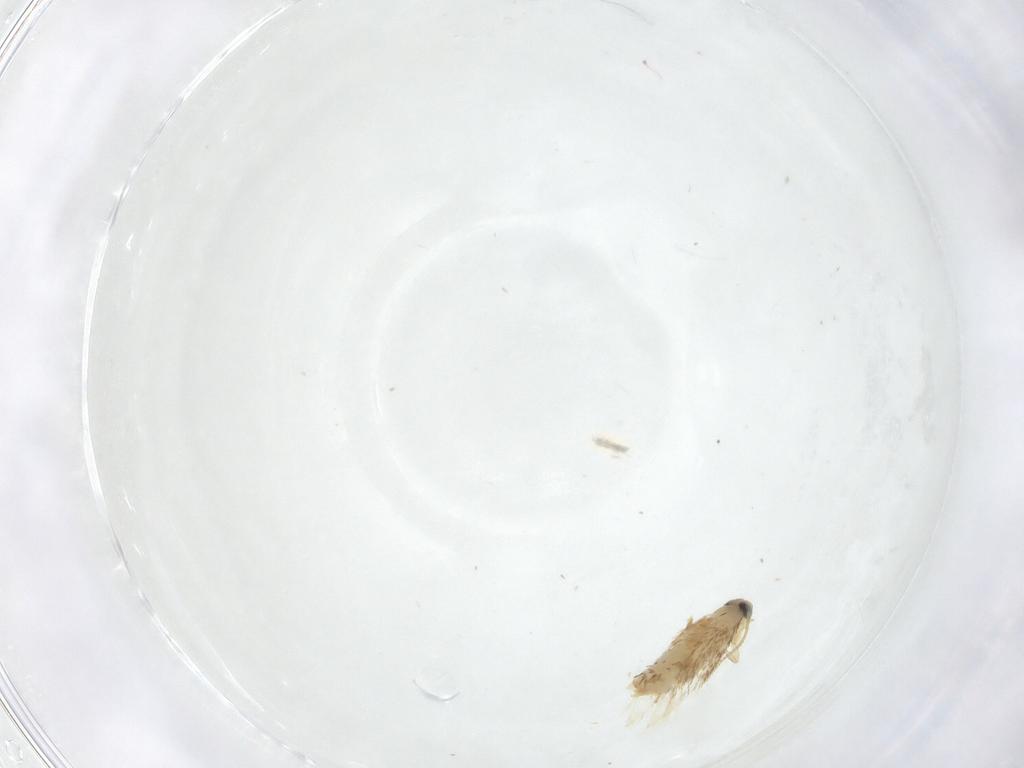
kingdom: Animalia
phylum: Arthropoda
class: Insecta
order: Lepidoptera
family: Nepticulidae
